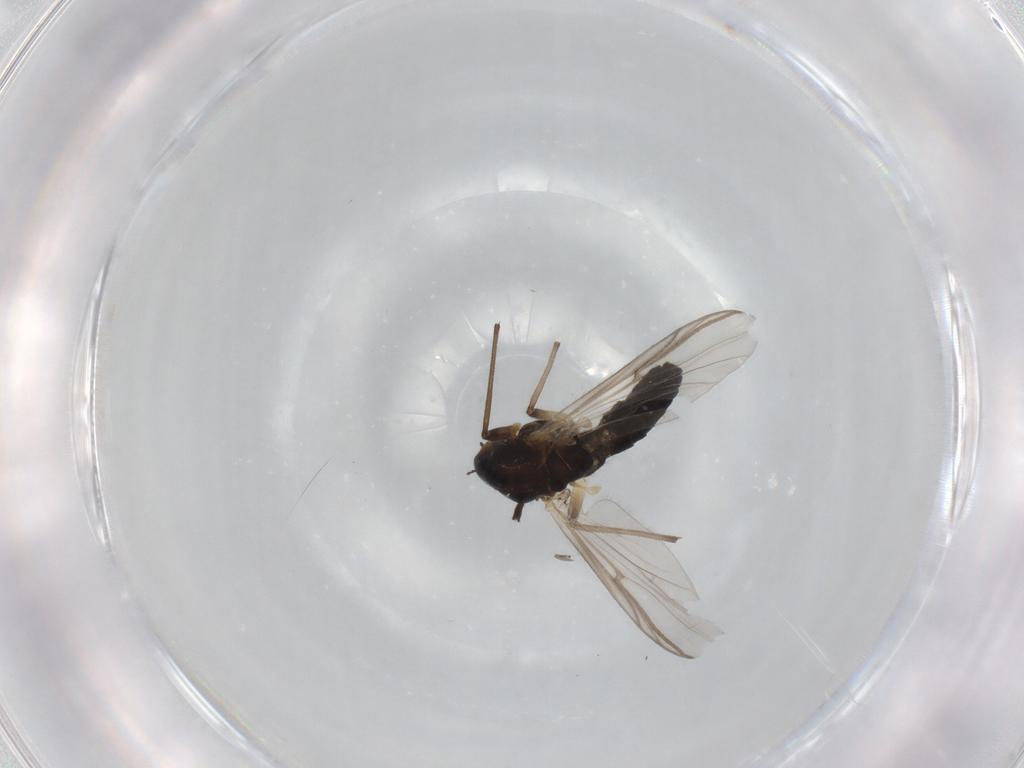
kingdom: Animalia
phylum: Arthropoda
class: Insecta
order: Diptera
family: Chironomidae
